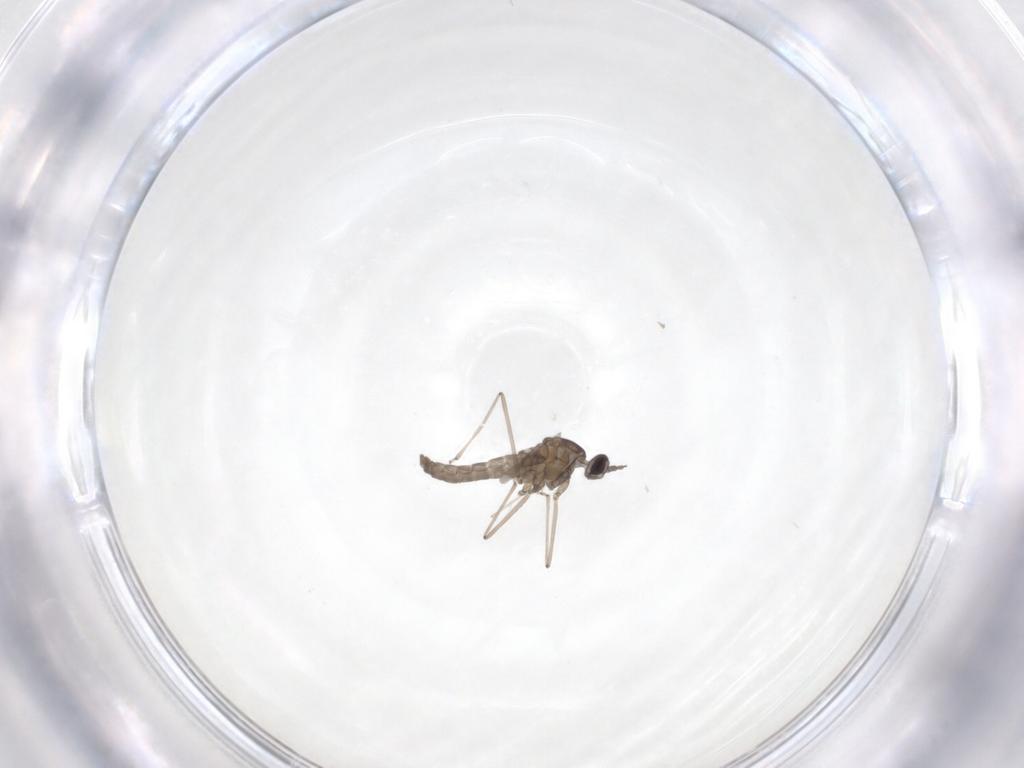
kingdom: Animalia
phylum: Arthropoda
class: Insecta
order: Diptera
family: Cecidomyiidae
